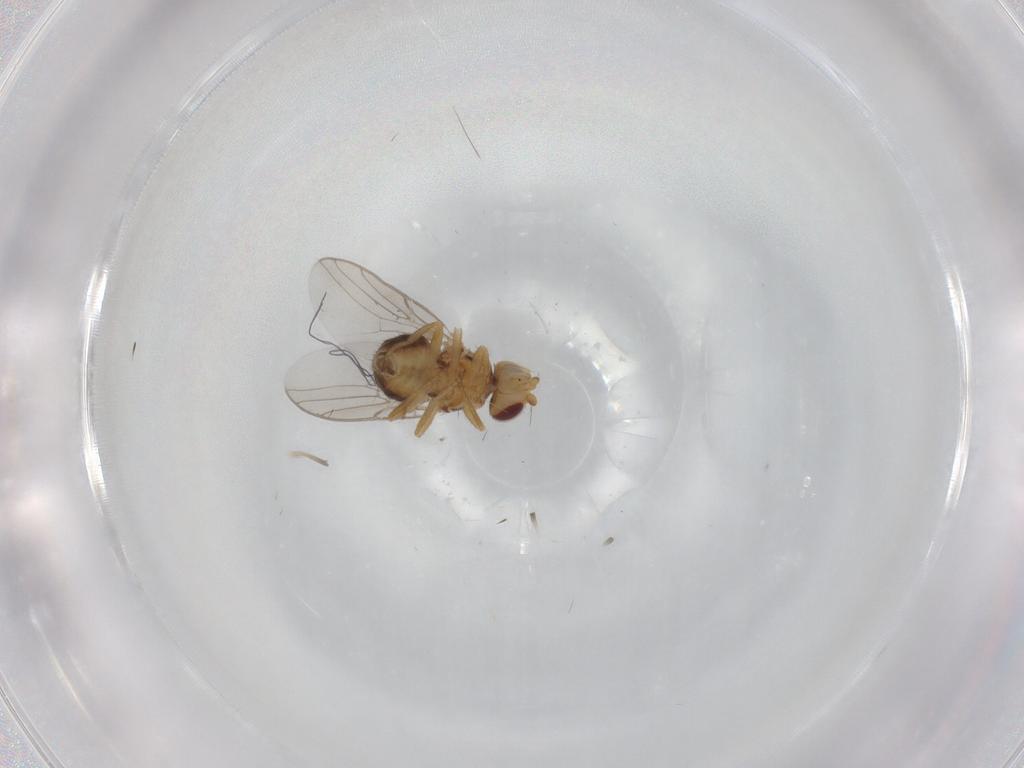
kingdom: Animalia
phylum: Arthropoda
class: Insecta
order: Diptera
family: Chloropidae
